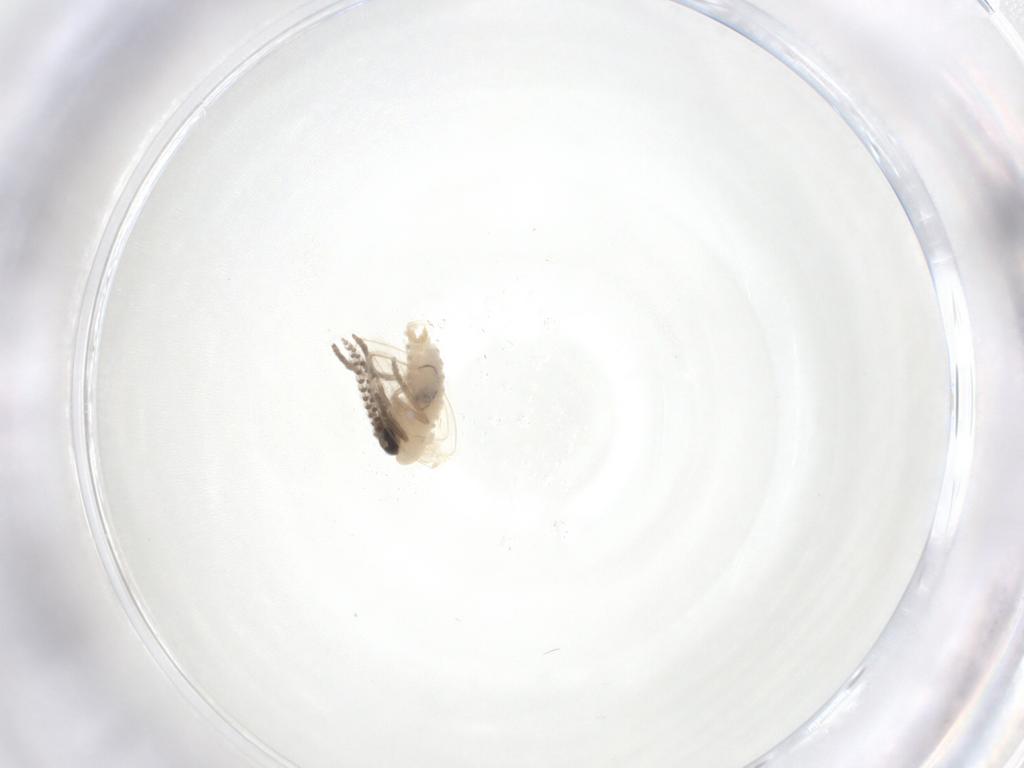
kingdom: Animalia
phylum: Arthropoda
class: Insecta
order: Diptera
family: Psychodidae
